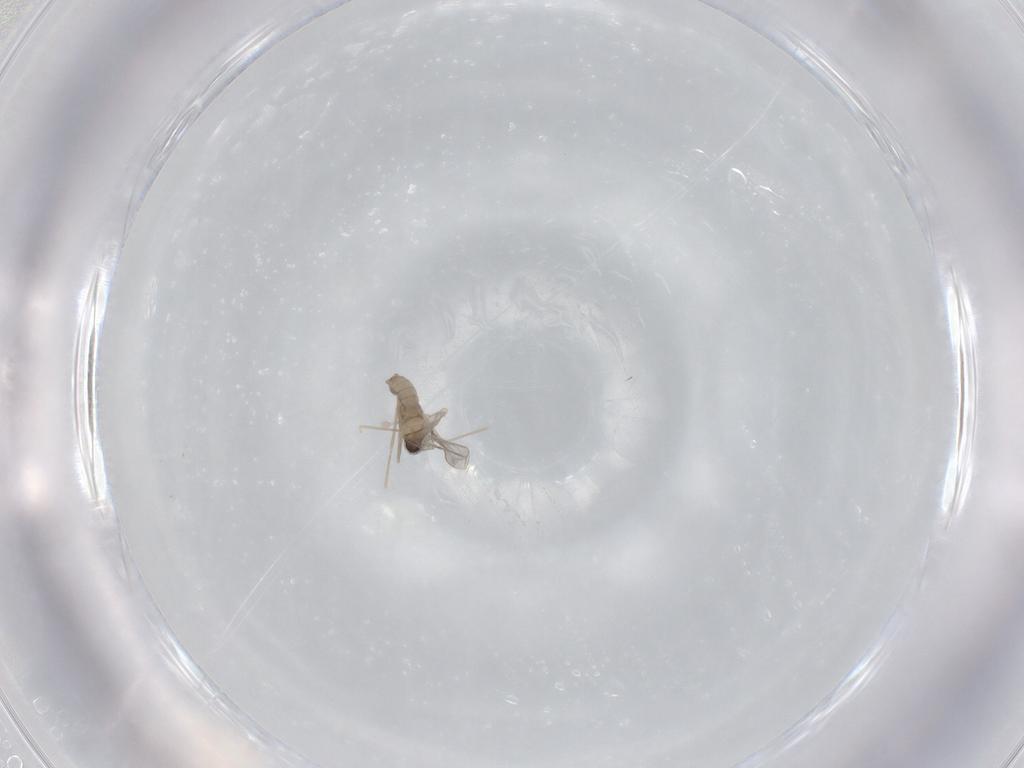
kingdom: Animalia
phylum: Arthropoda
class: Insecta
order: Diptera
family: Cecidomyiidae
